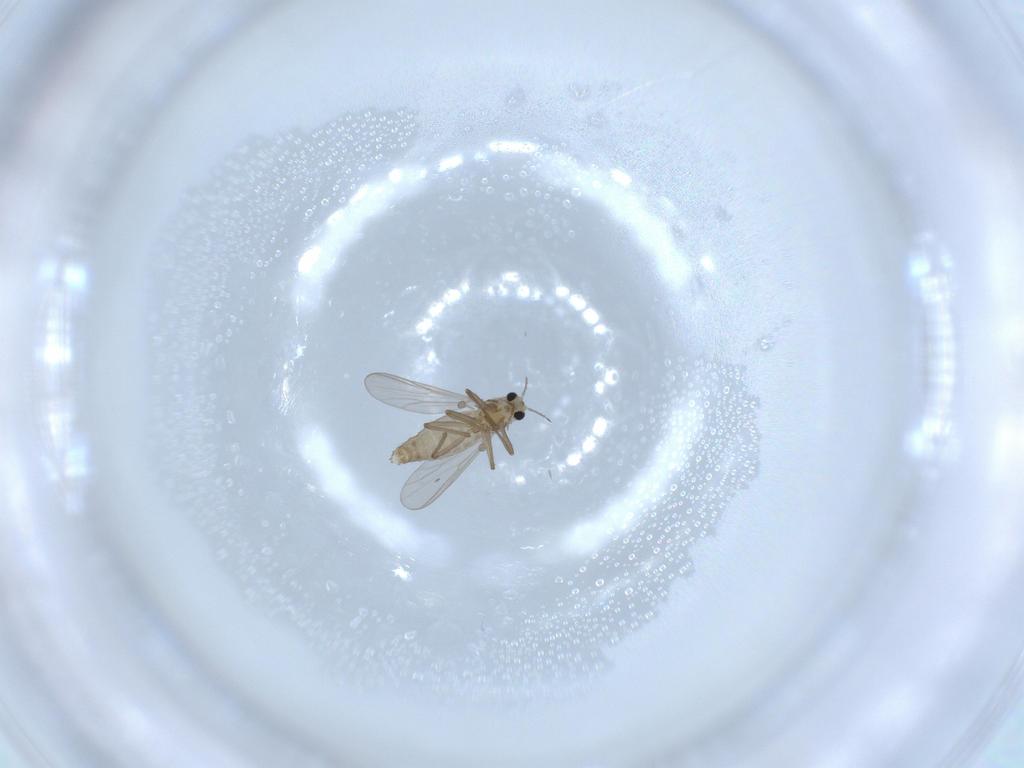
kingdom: Animalia
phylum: Arthropoda
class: Insecta
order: Diptera
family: Chironomidae
